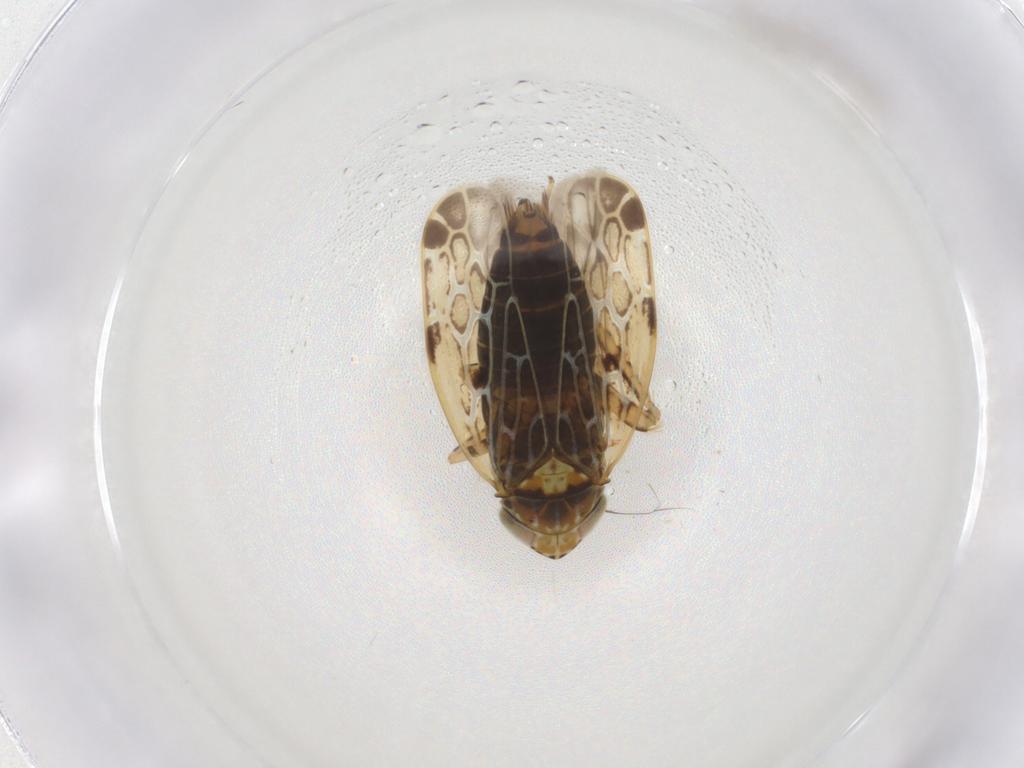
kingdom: Animalia
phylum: Arthropoda
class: Insecta
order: Hemiptera
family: Cicadellidae
